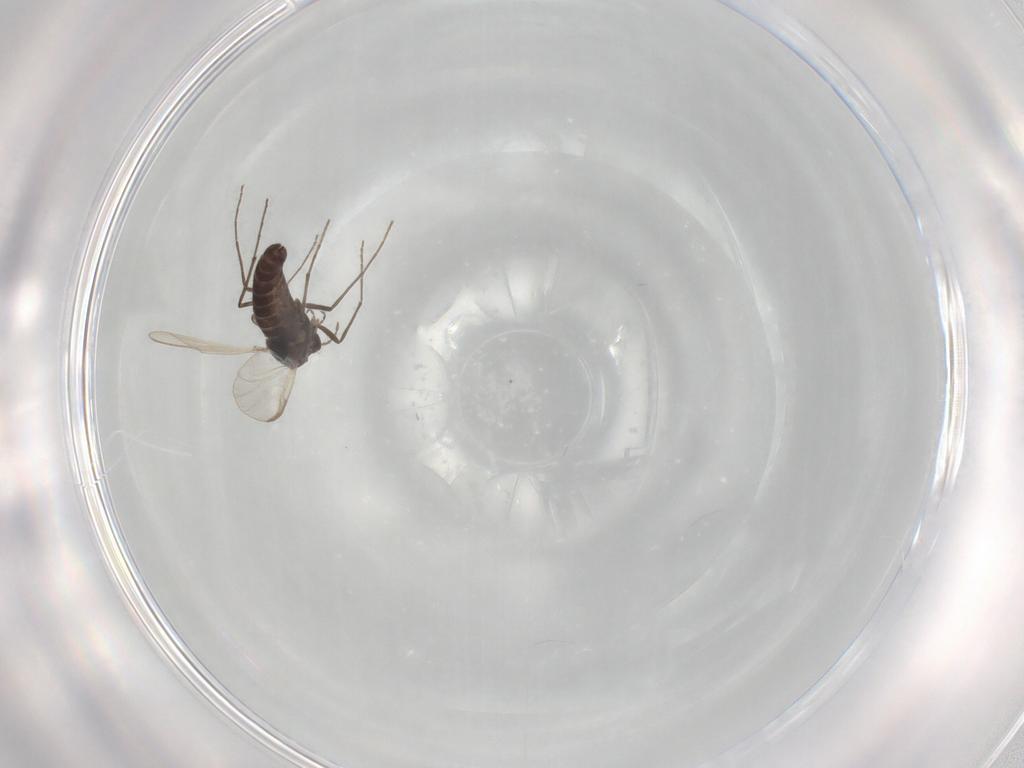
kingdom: Animalia
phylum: Arthropoda
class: Insecta
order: Diptera
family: Chironomidae
